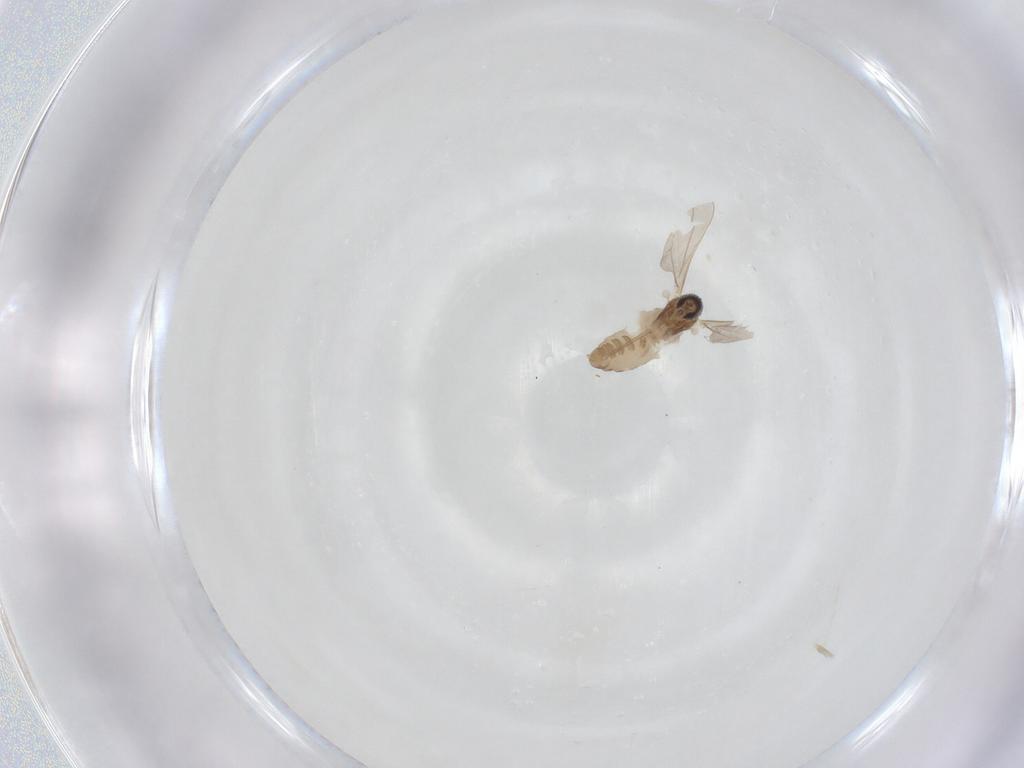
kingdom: Animalia
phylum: Arthropoda
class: Insecta
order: Diptera
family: Cecidomyiidae
